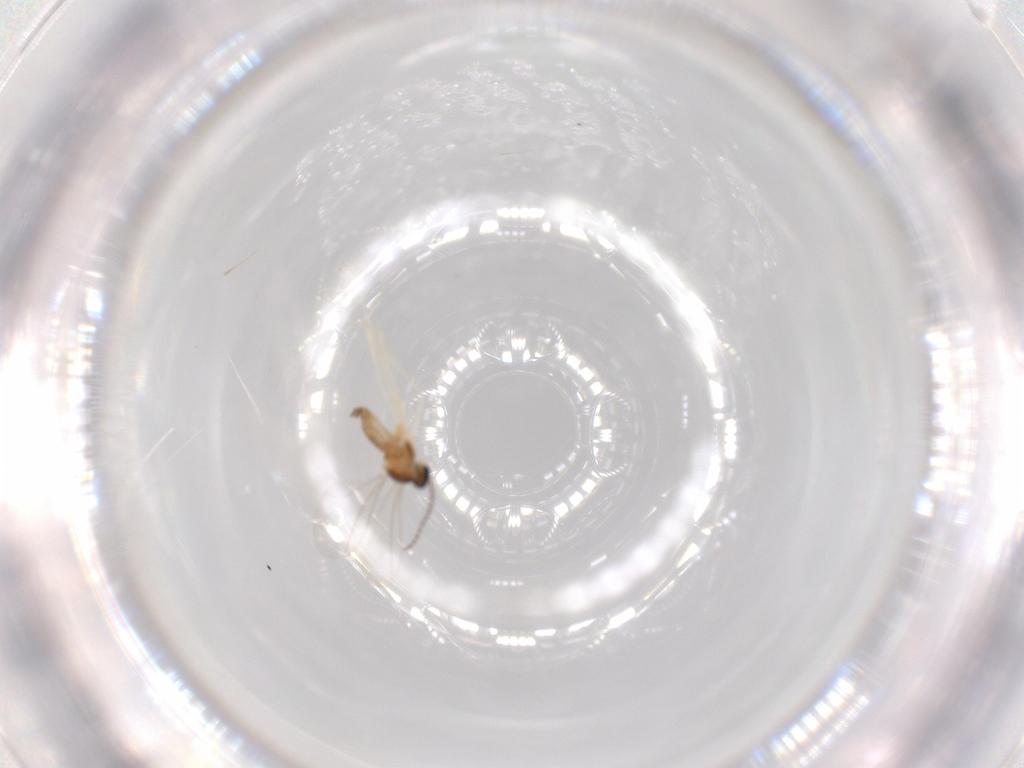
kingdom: Animalia
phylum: Arthropoda
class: Insecta
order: Diptera
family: Cecidomyiidae
